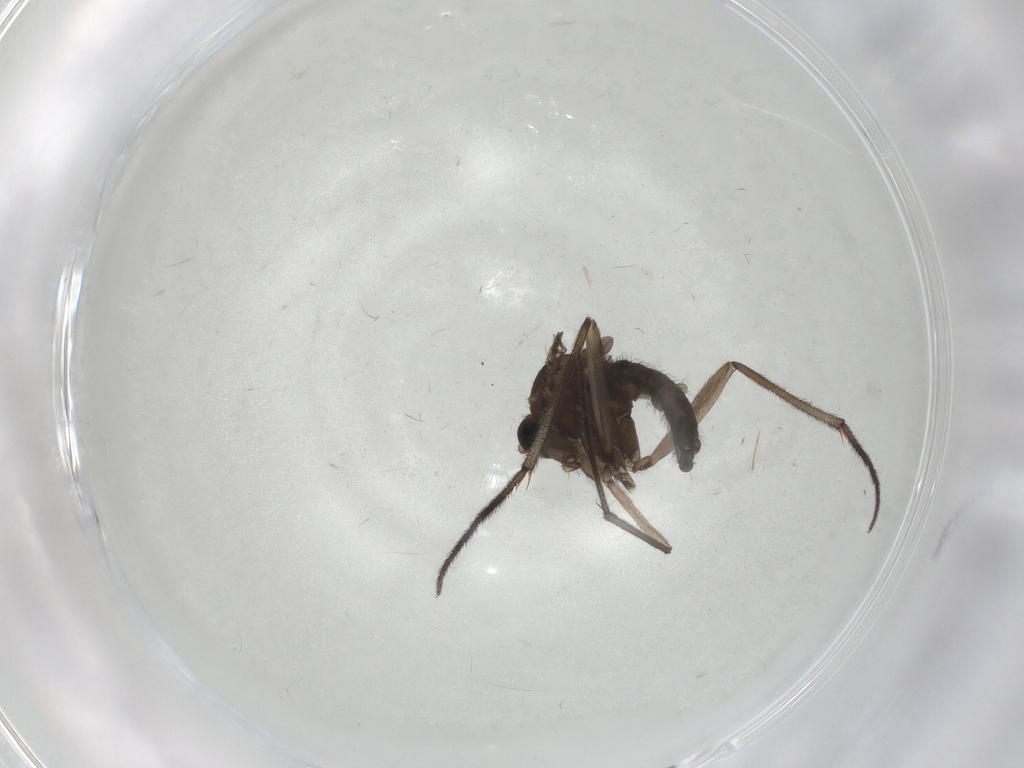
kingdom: Animalia
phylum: Arthropoda
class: Insecta
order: Diptera
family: Sciaridae
